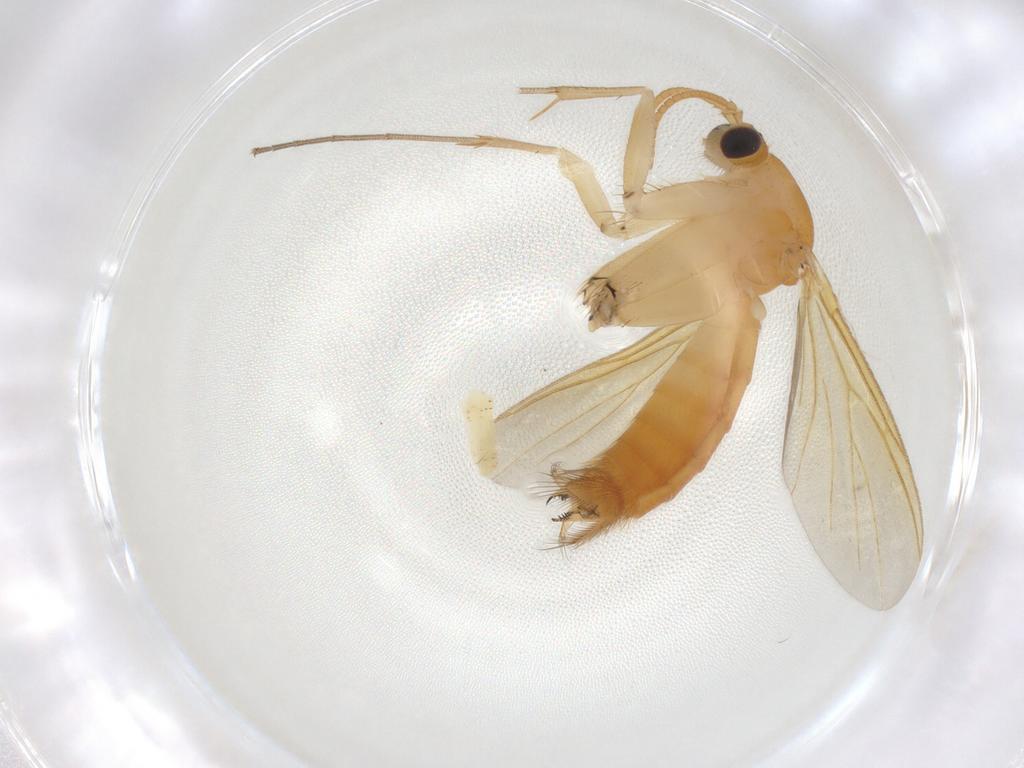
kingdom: Animalia
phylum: Arthropoda
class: Insecta
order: Diptera
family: Mycetophilidae
